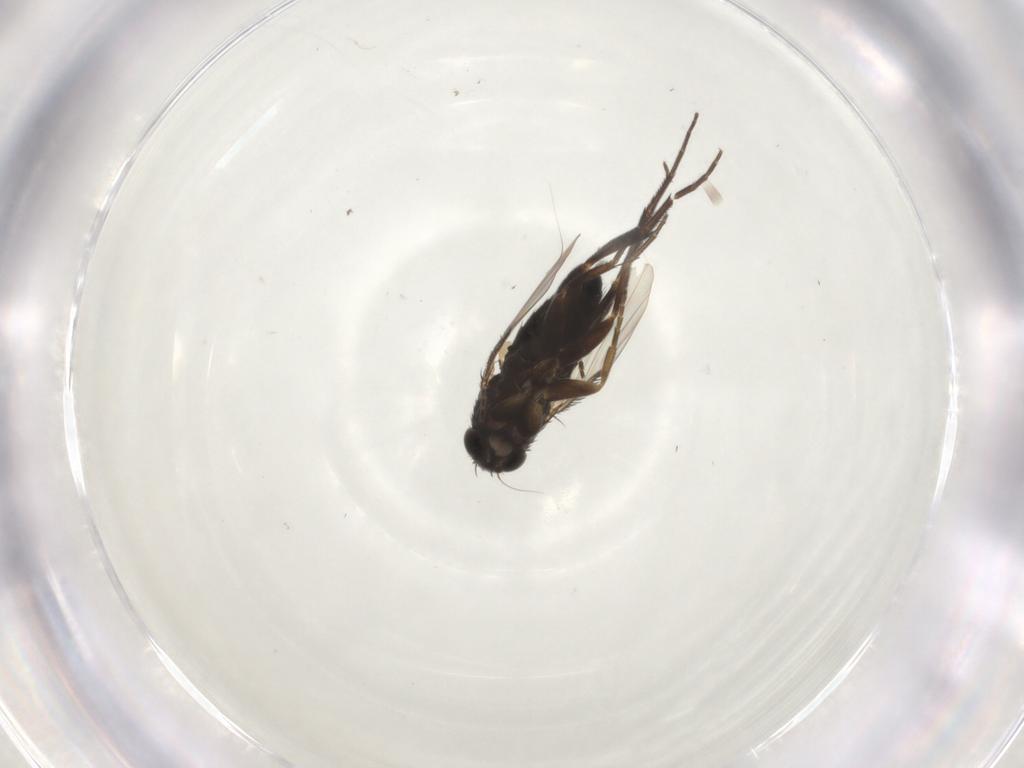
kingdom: Animalia
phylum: Arthropoda
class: Insecta
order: Diptera
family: Phoridae
